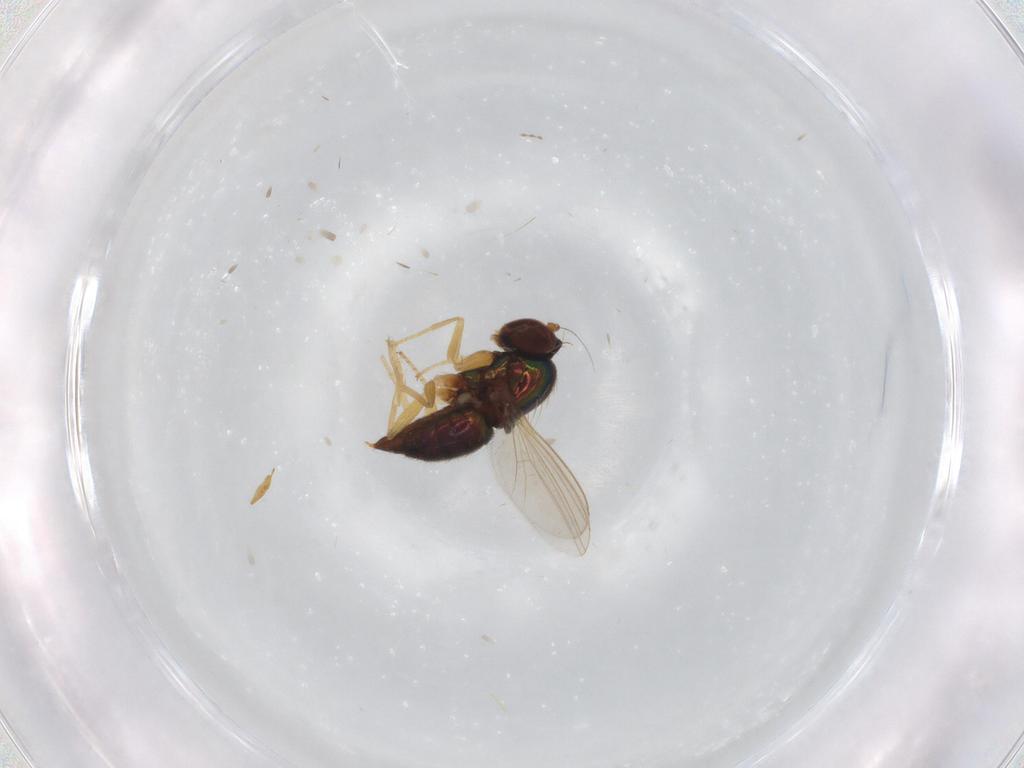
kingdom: Animalia
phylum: Arthropoda
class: Insecta
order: Diptera
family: Dolichopodidae
